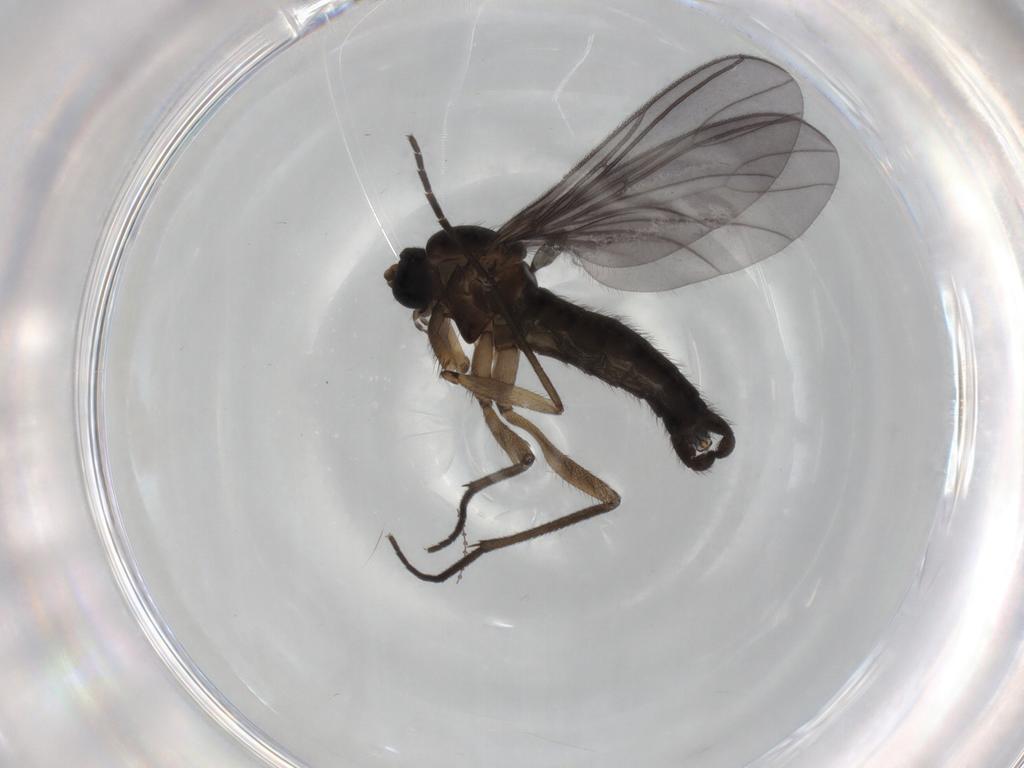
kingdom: Animalia
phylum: Arthropoda
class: Insecta
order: Diptera
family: Sciaridae
